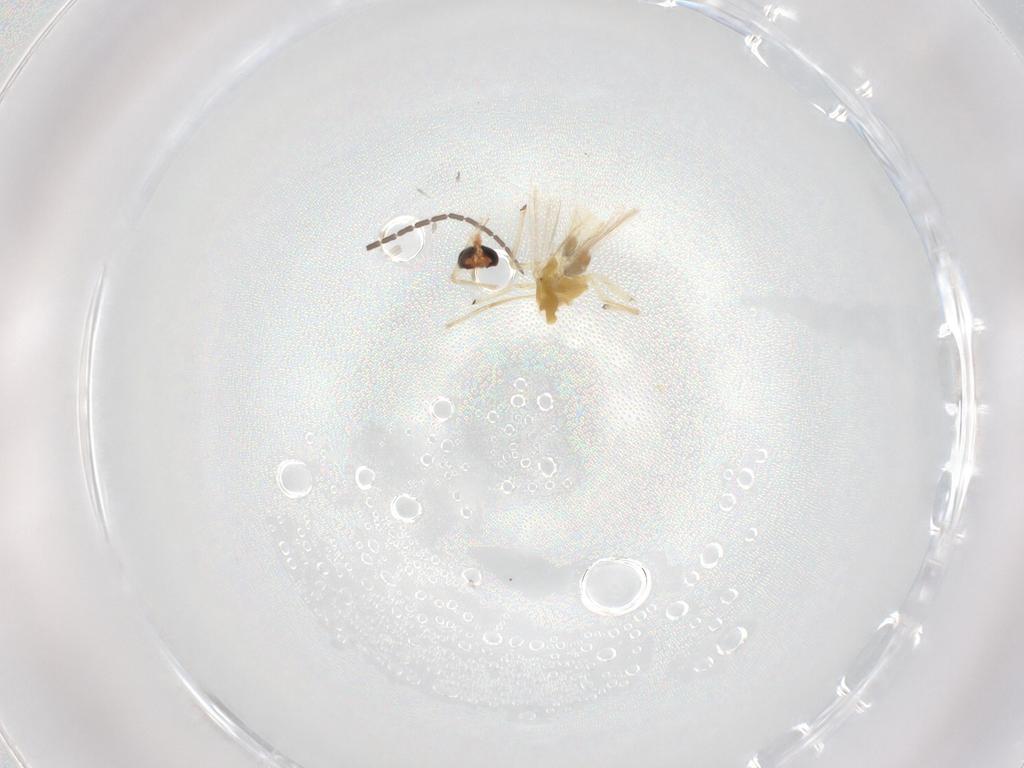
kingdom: Animalia
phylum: Arthropoda
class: Insecta
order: Diptera
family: Sciaridae
